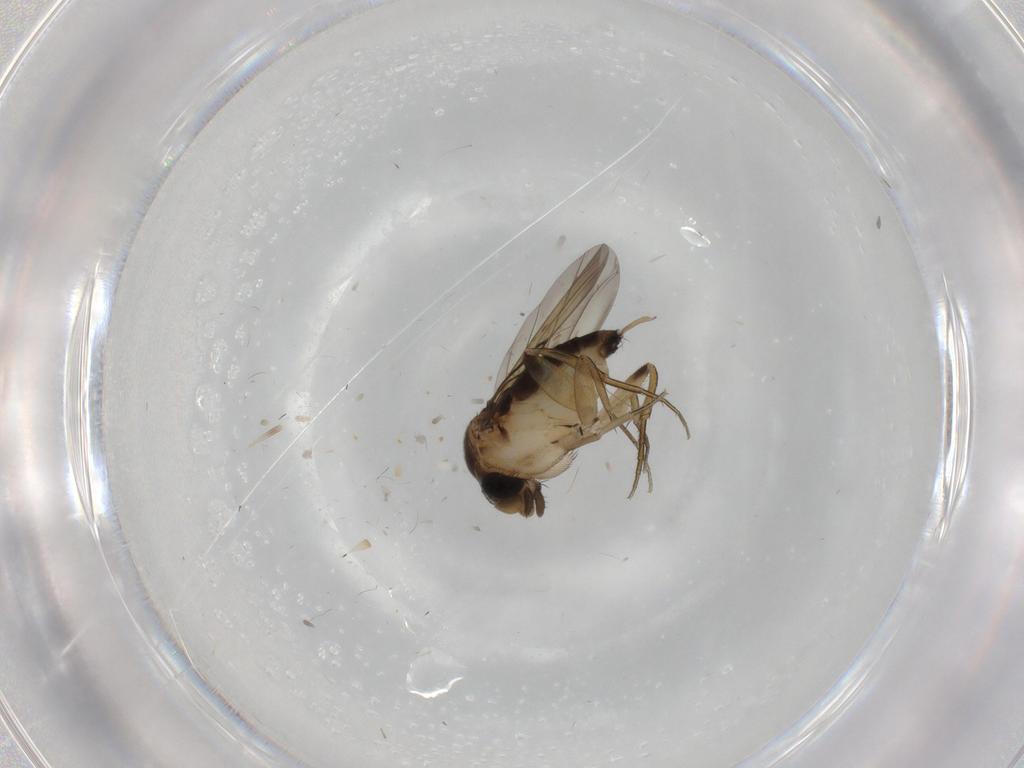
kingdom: Animalia
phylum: Arthropoda
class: Insecta
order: Diptera
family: Phoridae
